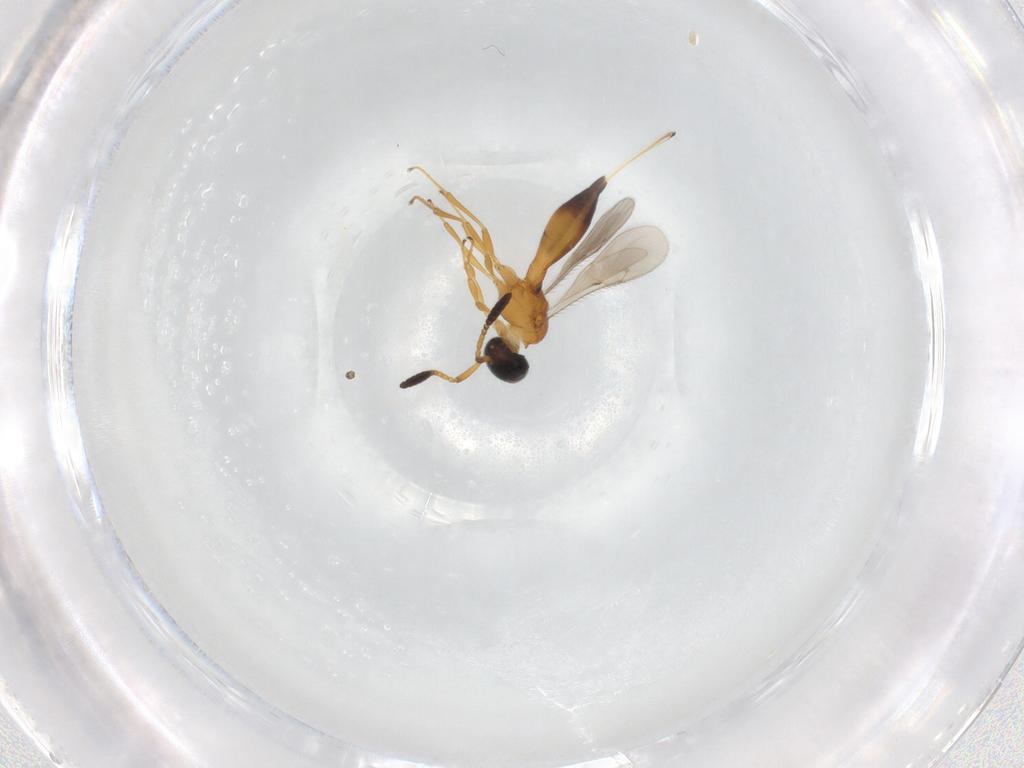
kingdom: Animalia
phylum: Arthropoda
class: Insecta
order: Hymenoptera
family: Scelionidae
